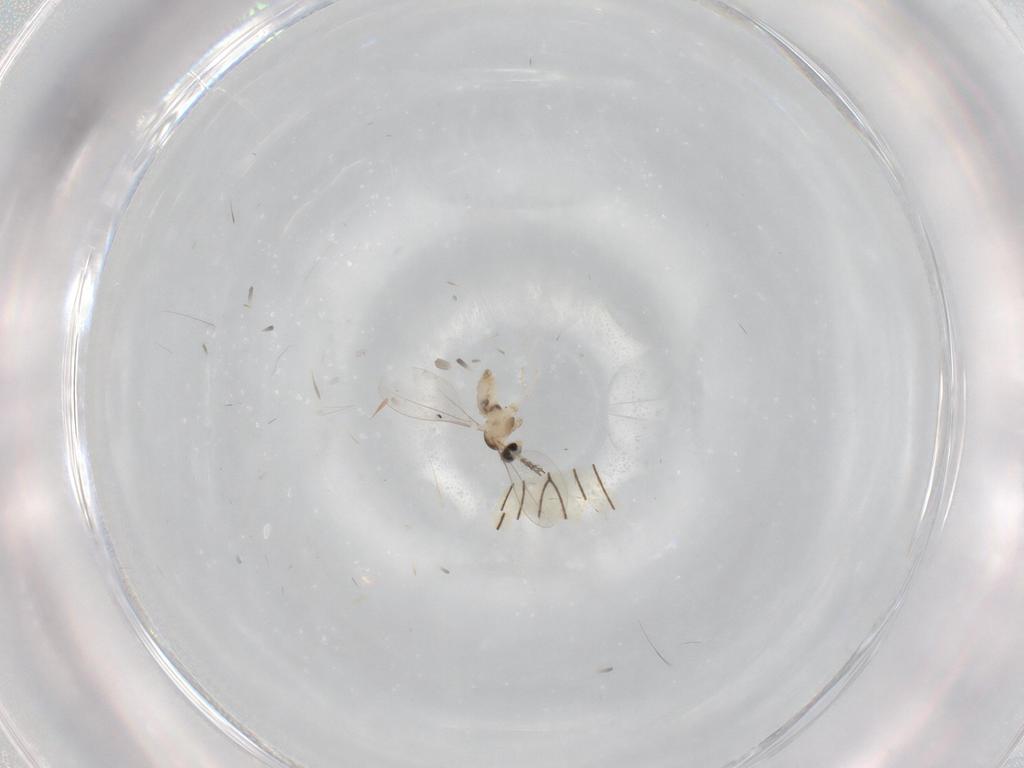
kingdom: Animalia
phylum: Arthropoda
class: Insecta
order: Diptera
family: Cecidomyiidae
